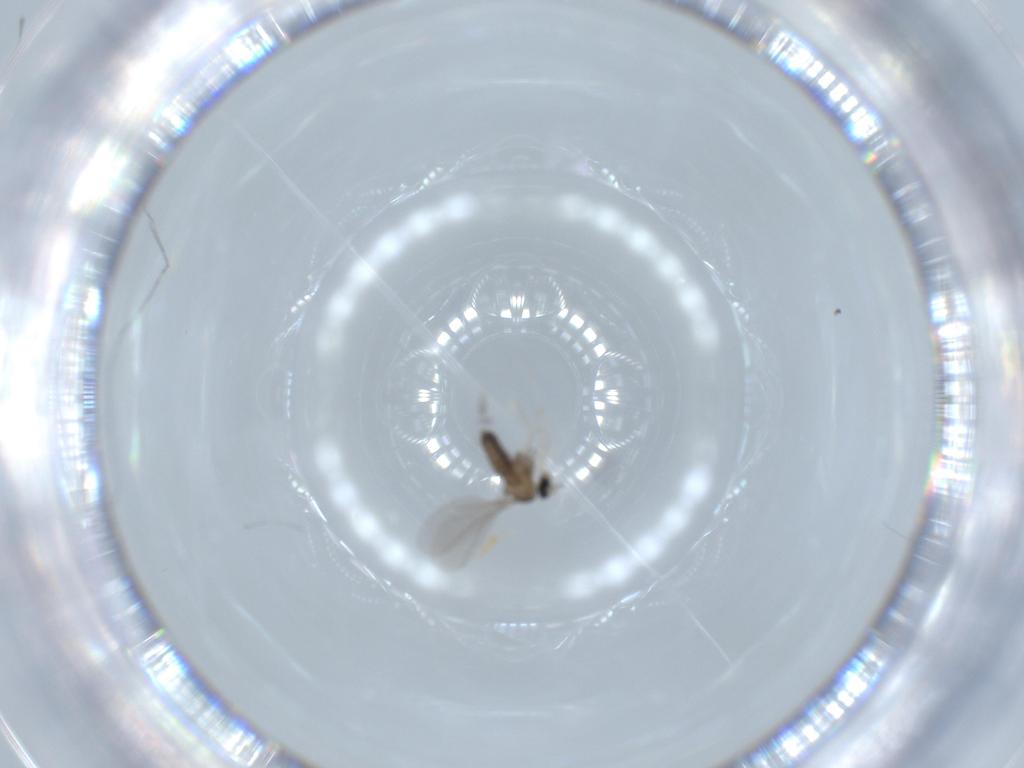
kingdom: Animalia
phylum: Arthropoda
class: Insecta
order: Diptera
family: Cecidomyiidae
